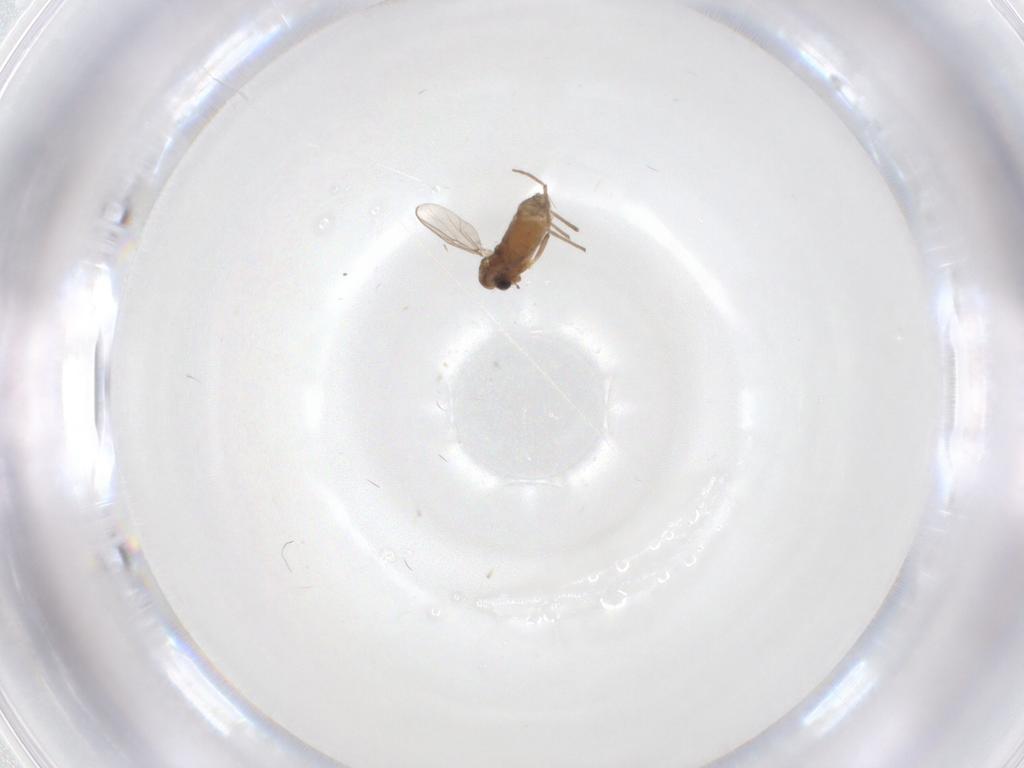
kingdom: Animalia
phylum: Arthropoda
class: Insecta
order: Diptera
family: Chironomidae
